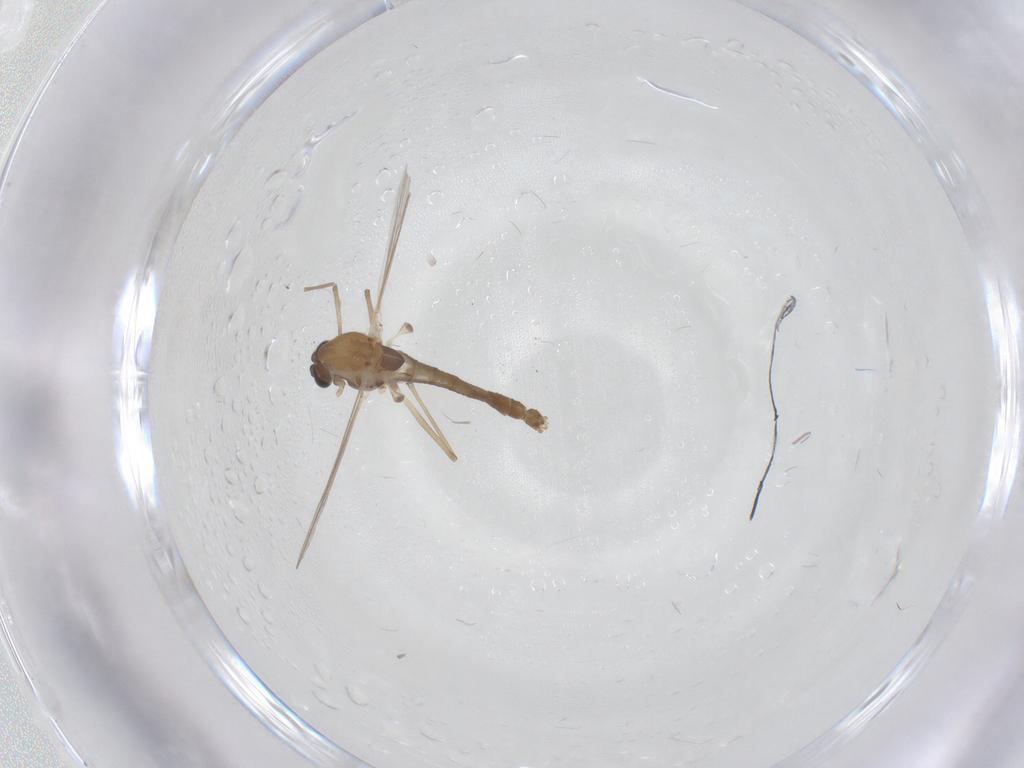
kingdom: Animalia
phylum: Arthropoda
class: Insecta
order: Diptera
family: Chironomidae
